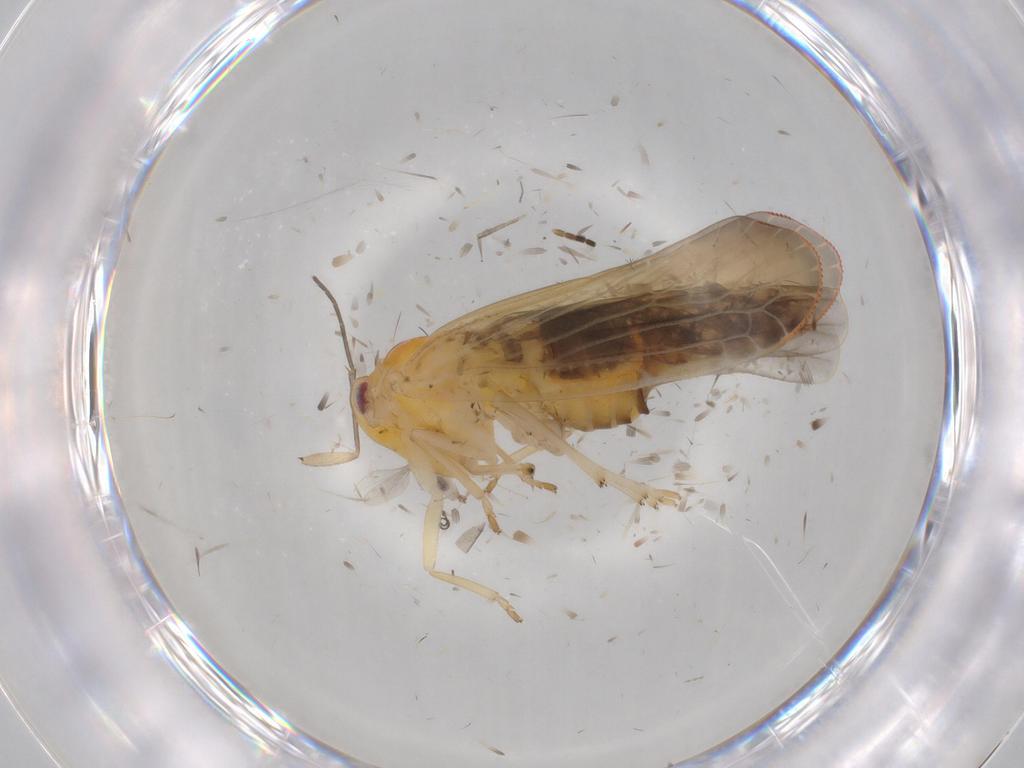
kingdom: Animalia
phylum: Arthropoda
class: Insecta
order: Hemiptera
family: Derbidae
